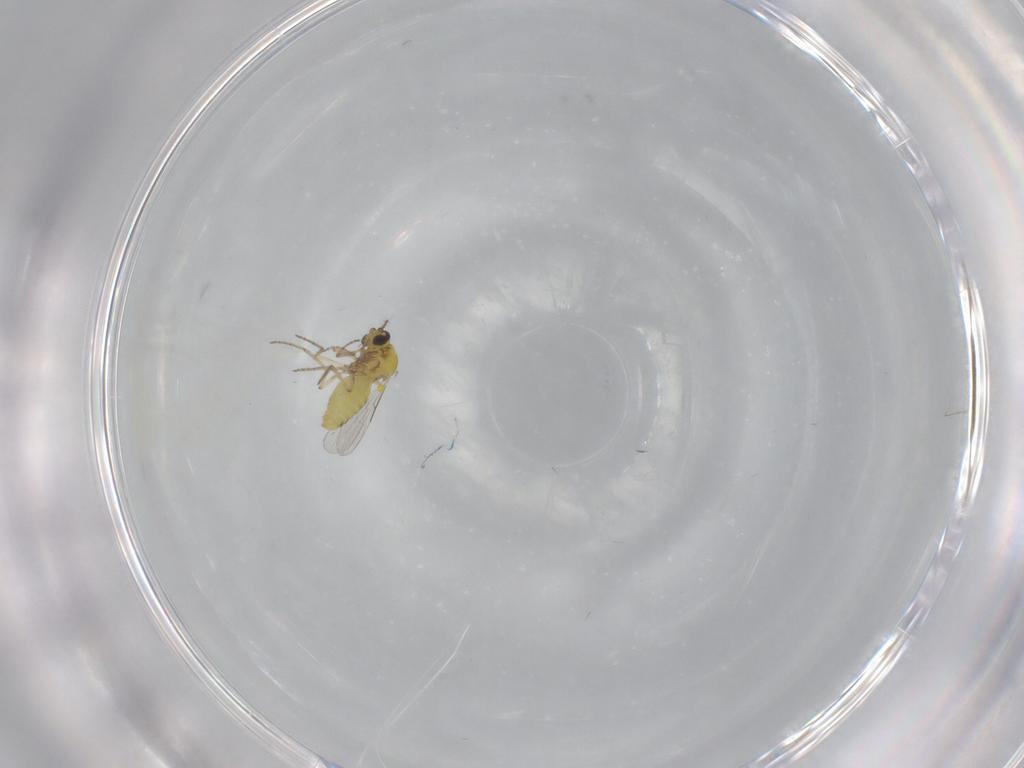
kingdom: Animalia
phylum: Arthropoda
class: Insecta
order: Diptera
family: Ceratopogonidae
